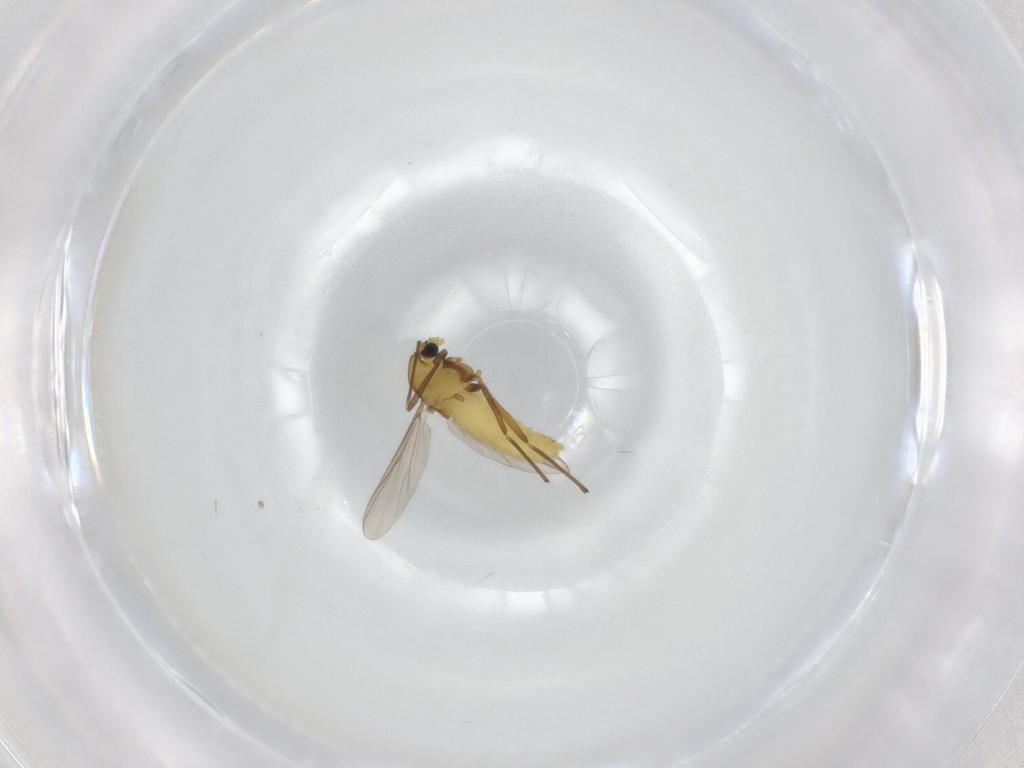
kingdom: Animalia
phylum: Arthropoda
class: Insecta
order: Diptera
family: Chironomidae
